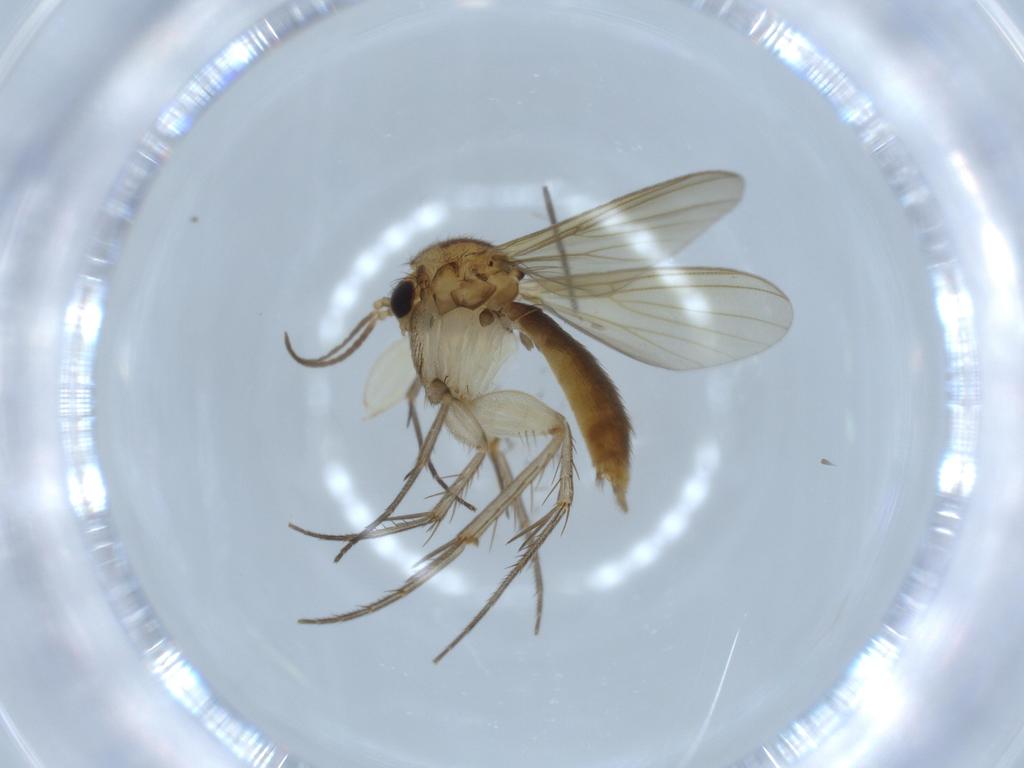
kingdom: Animalia
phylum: Arthropoda
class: Insecta
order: Diptera
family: Mycetophilidae
